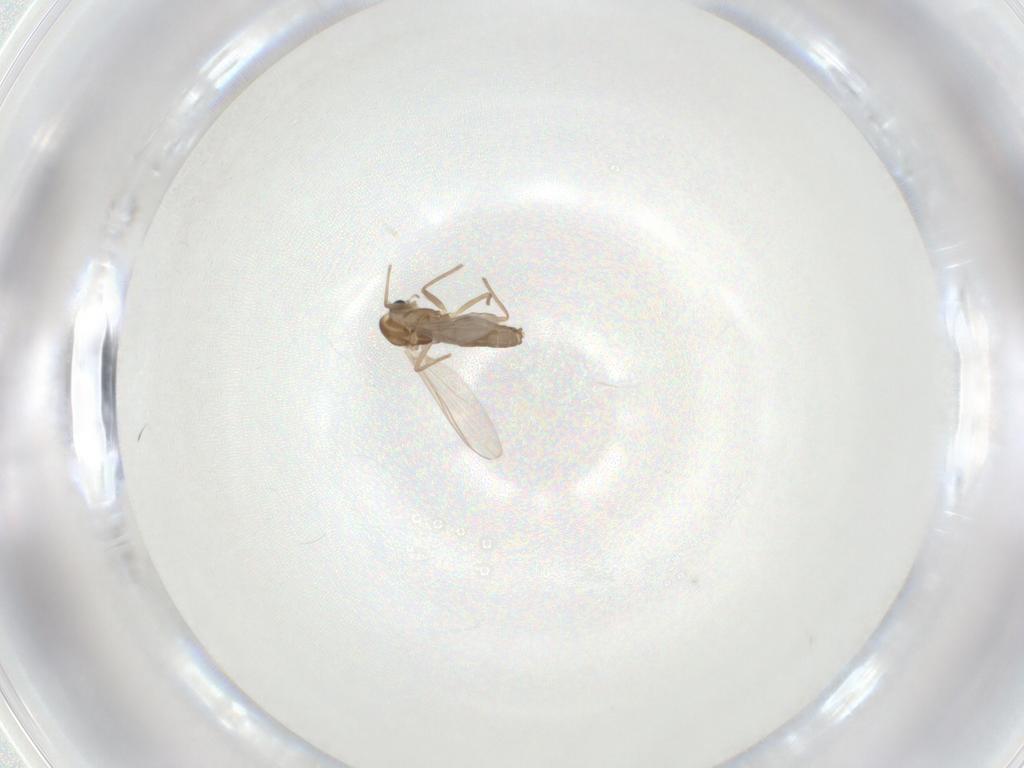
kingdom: Animalia
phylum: Arthropoda
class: Insecta
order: Diptera
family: Chironomidae
